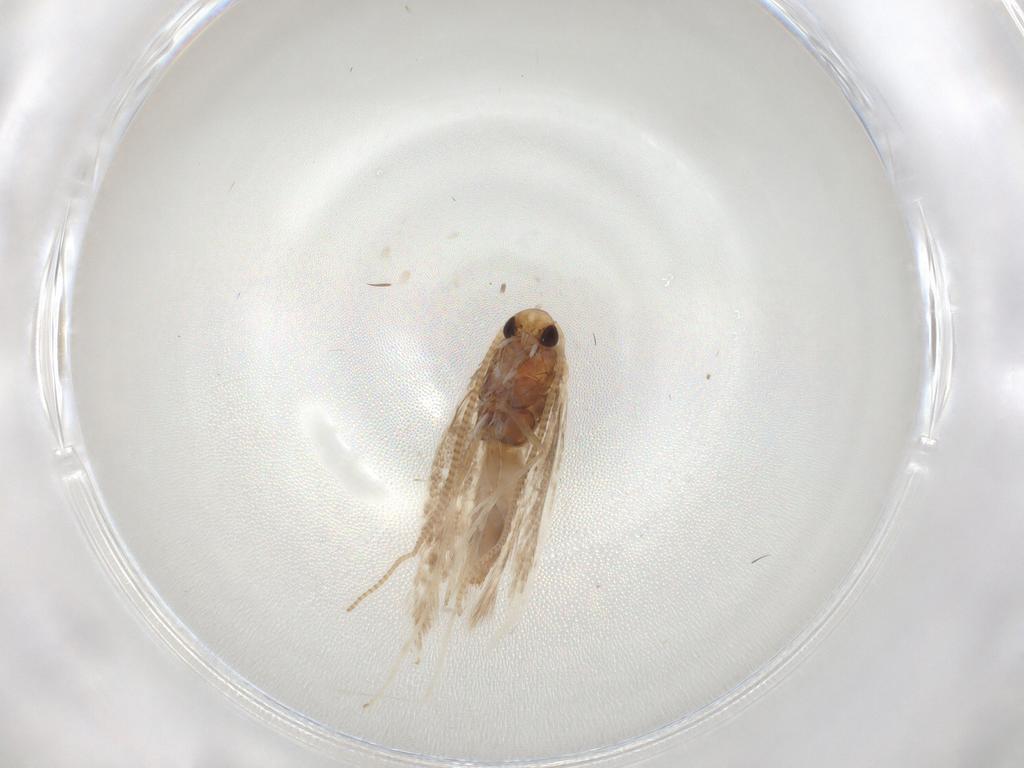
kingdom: Animalia
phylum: Arthropoda
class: Insecta
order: Lepidoptera
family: Gracillariidae
